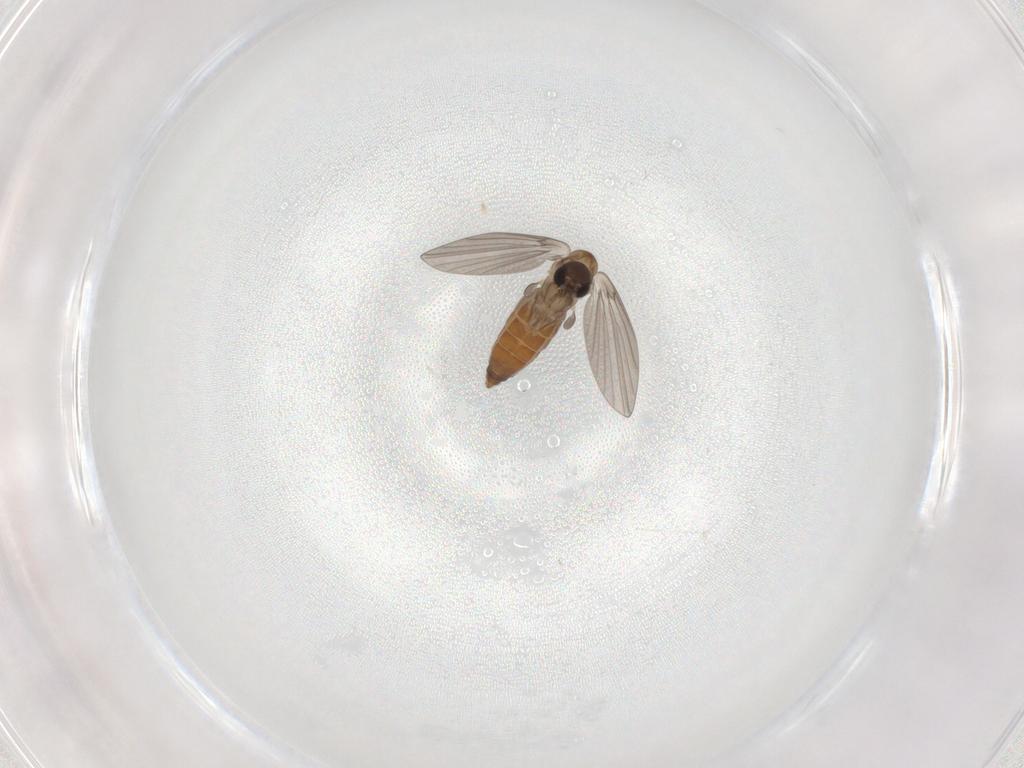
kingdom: Animalia
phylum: Arthropoda
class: Insecta
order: Diptera
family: Psychodidae
